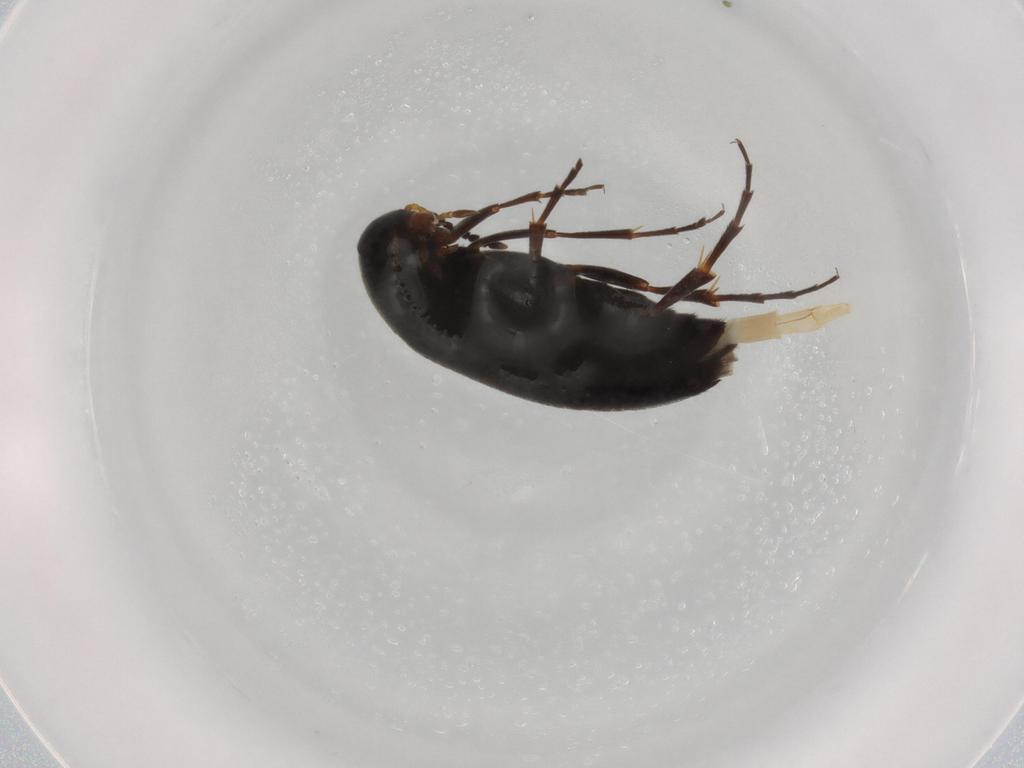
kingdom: Animalia
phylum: Arthropoda
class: Insecta
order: Coleoptera
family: Scraptiidae
